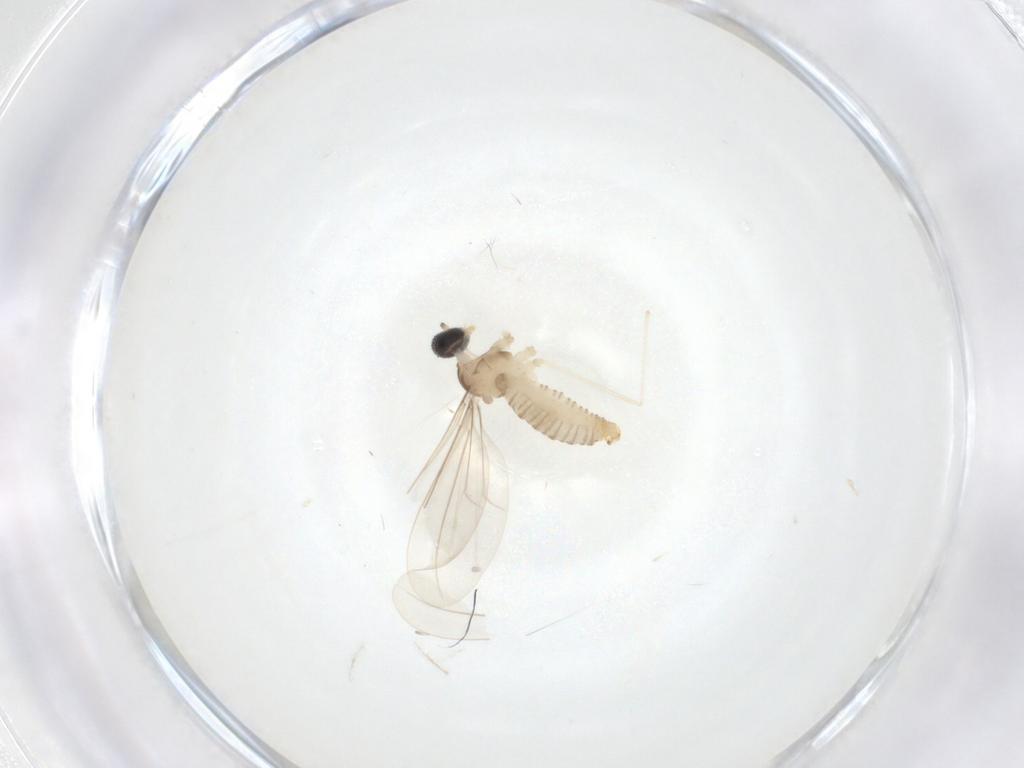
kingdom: Animalia
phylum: Arthropoda
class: Insecta
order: Diptera
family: Cecidomyiidae
